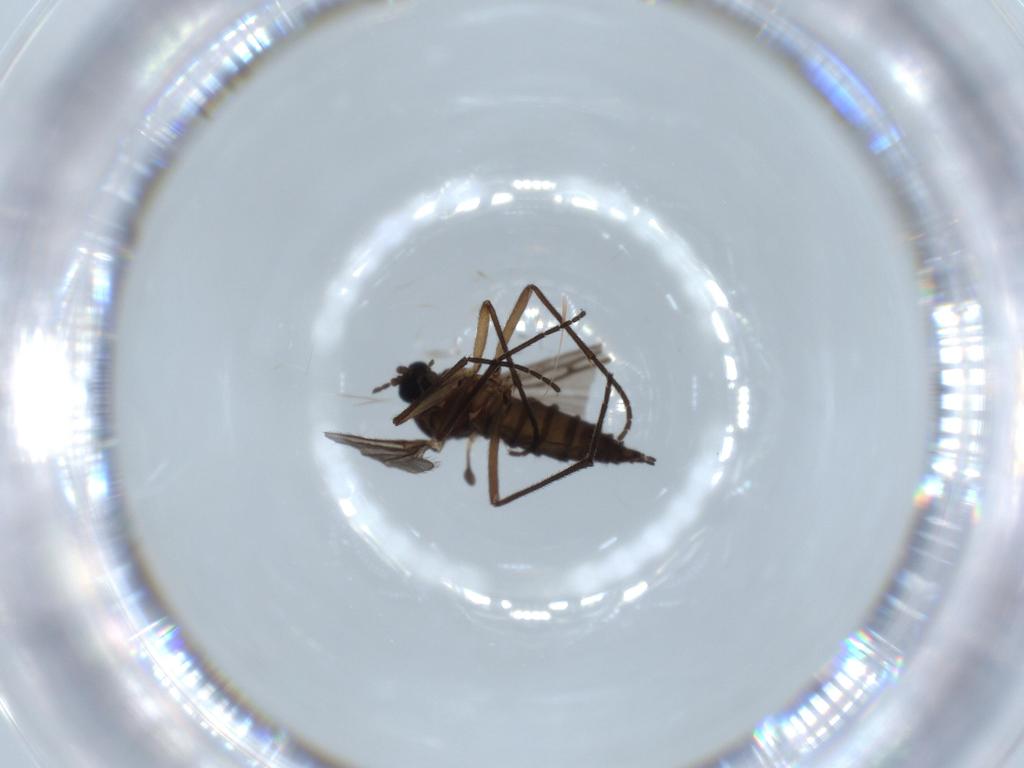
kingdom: Animalia
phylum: Arthropoda
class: Insecta
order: Diptera
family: Sciaridae
